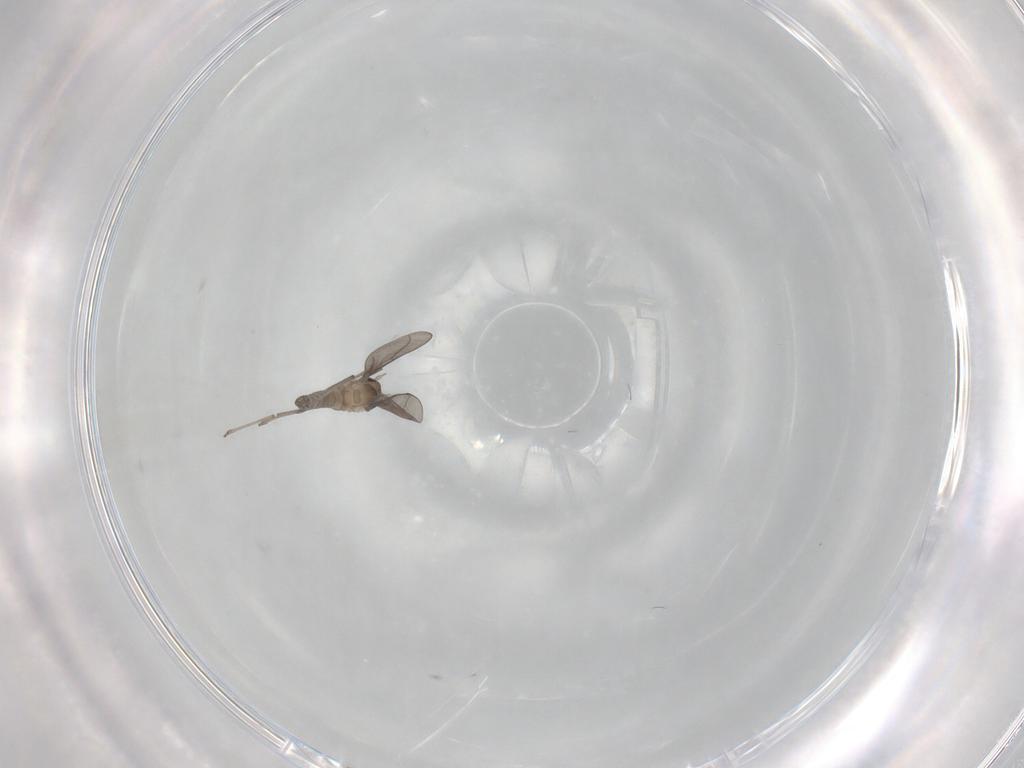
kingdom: Animalia
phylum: Arthropoda
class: Insecta
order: Diptera
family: Cecidomyiidae
